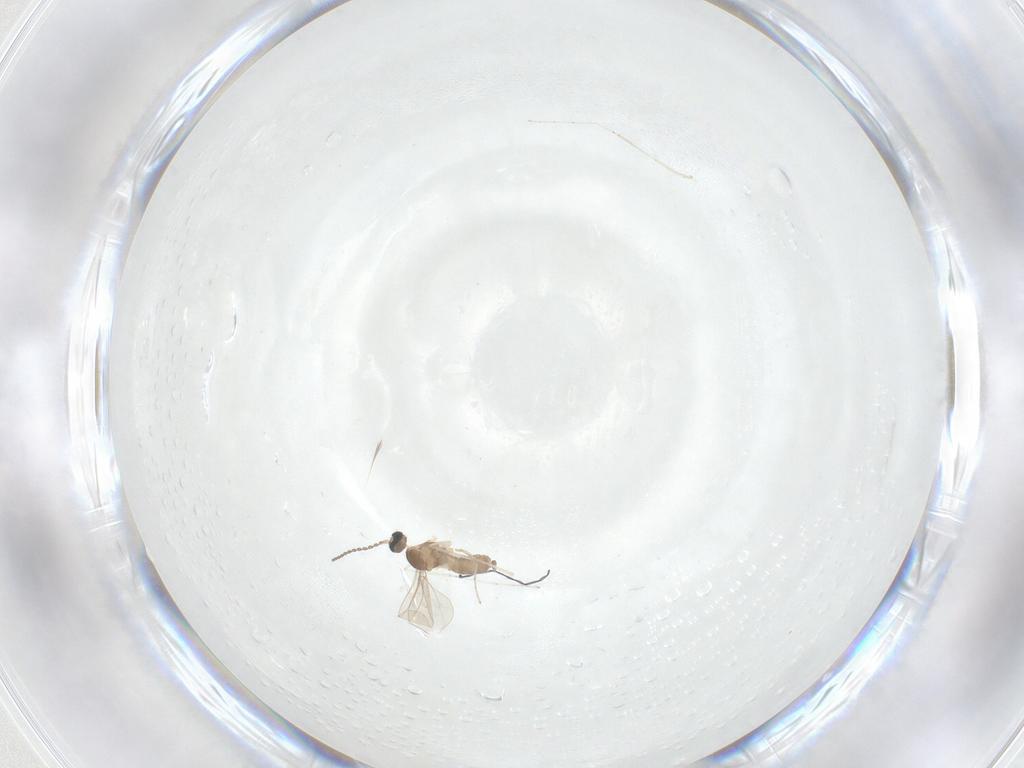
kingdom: Animalia
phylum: Arthropoda
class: Insecta
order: Diptera
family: Cecidomyiidae
